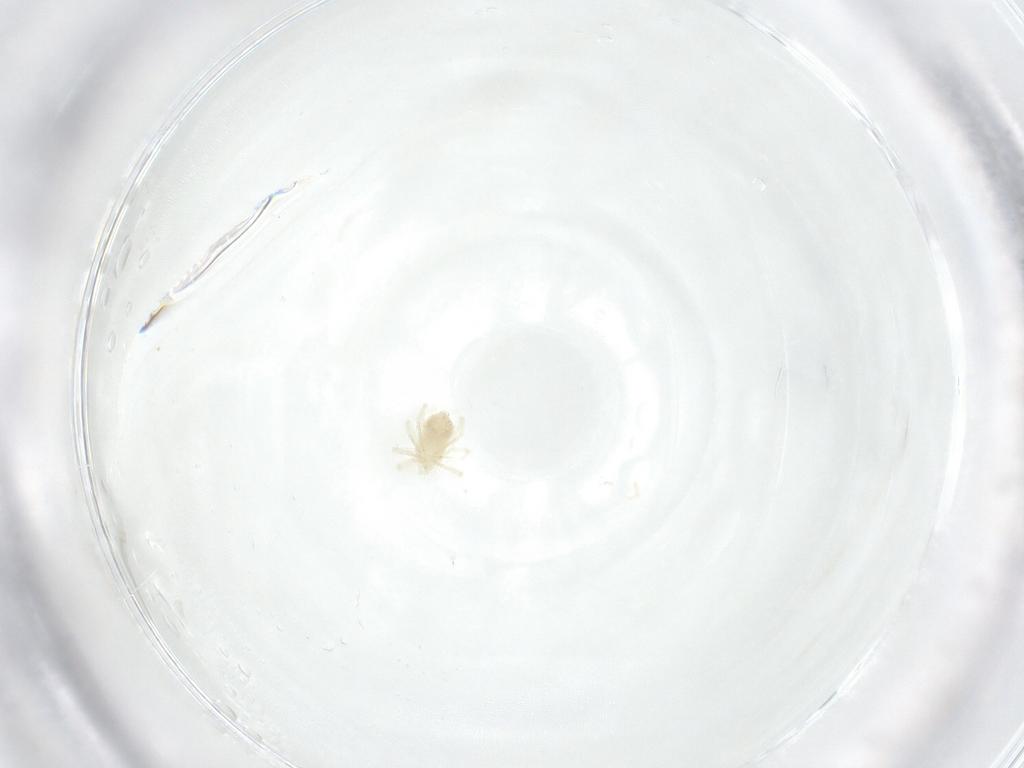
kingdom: Animalia
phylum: Arthropoda
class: Arachnida
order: Trombidiformes
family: Anystidae
